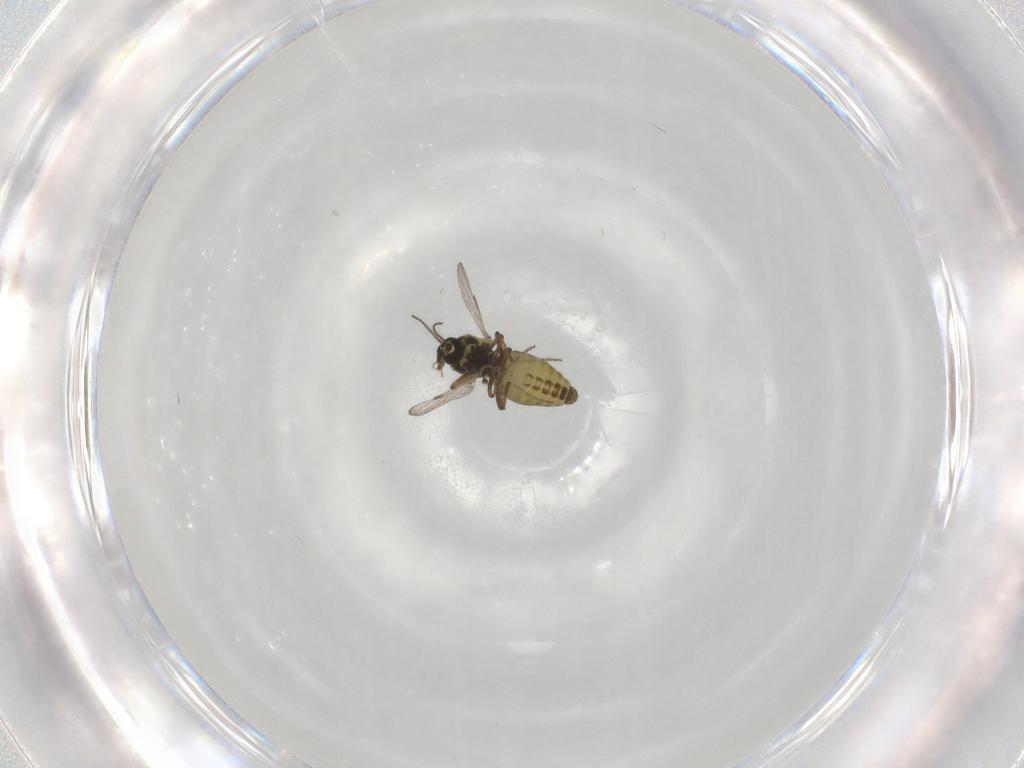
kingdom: Animalia
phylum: Arthropoda
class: Insecta
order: Diptera
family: Ceratopogonidae
